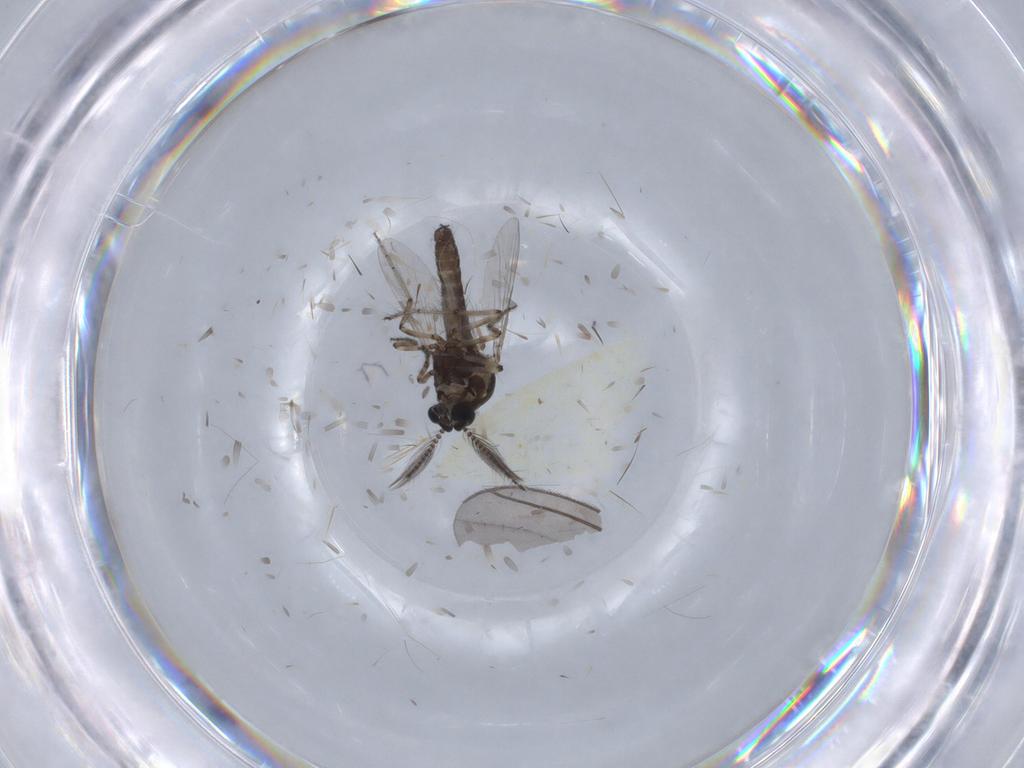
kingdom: Animalia
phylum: Arthropoda
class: Insecta
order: Diptera
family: Ceratopogonidae
